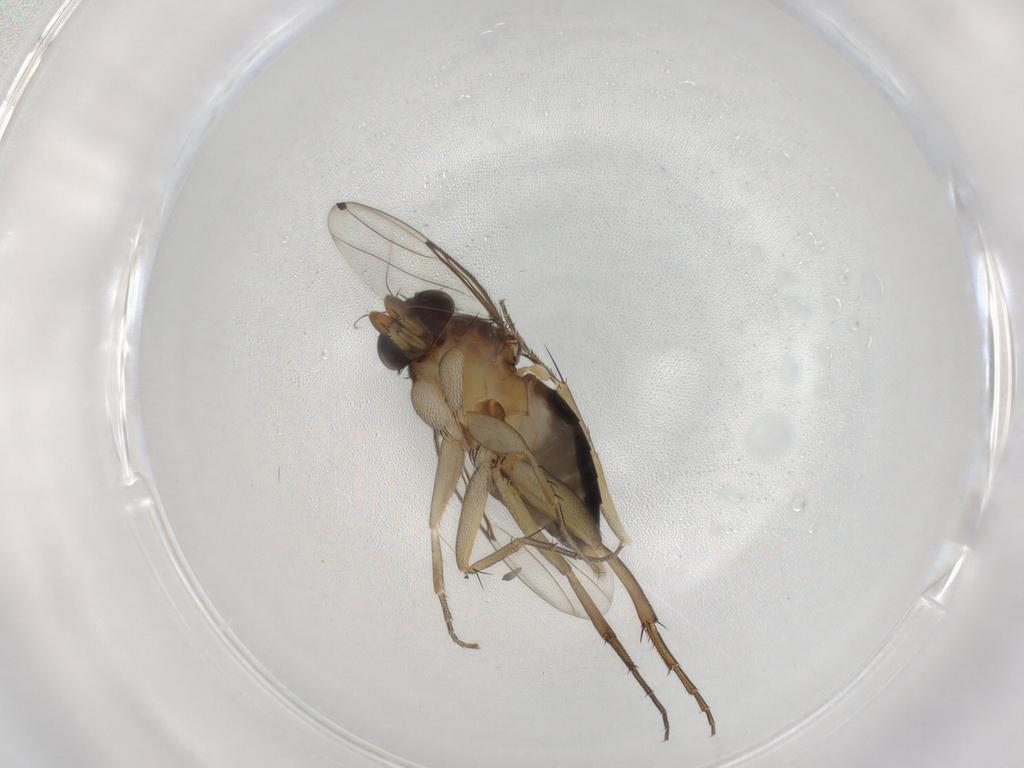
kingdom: Animalia
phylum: Arthropoda
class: Insecta
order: Diptera
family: Phoridae
